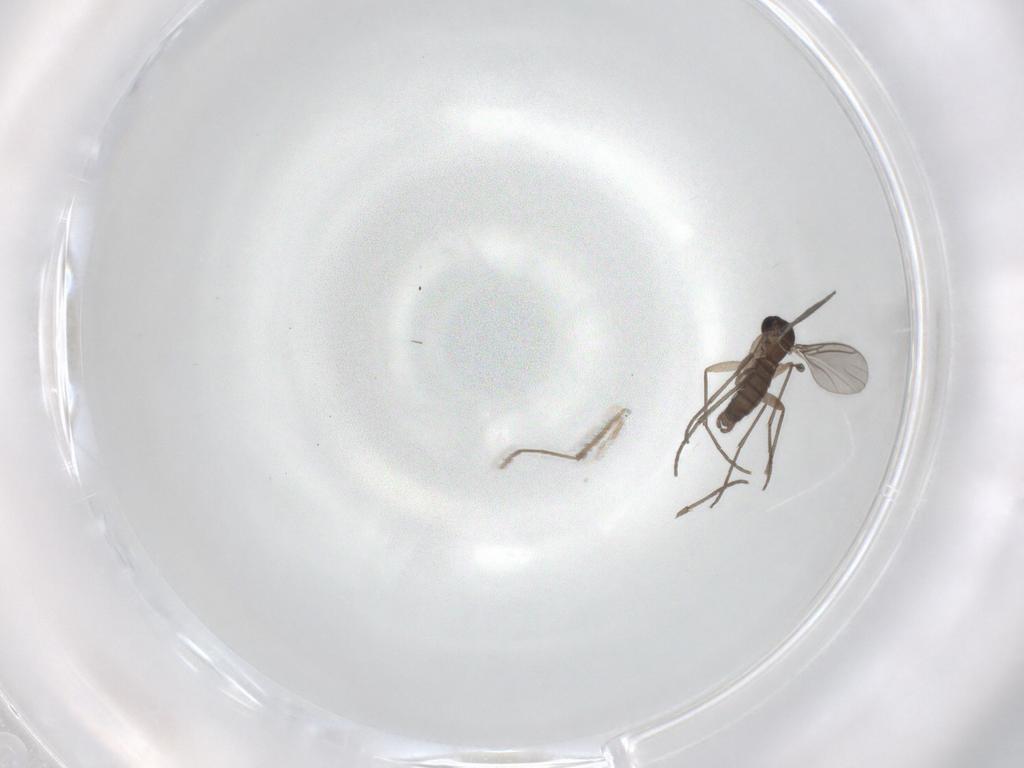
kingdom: Animalia
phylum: Arthropoda
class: Insecta
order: Diptera
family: Sciaridae
